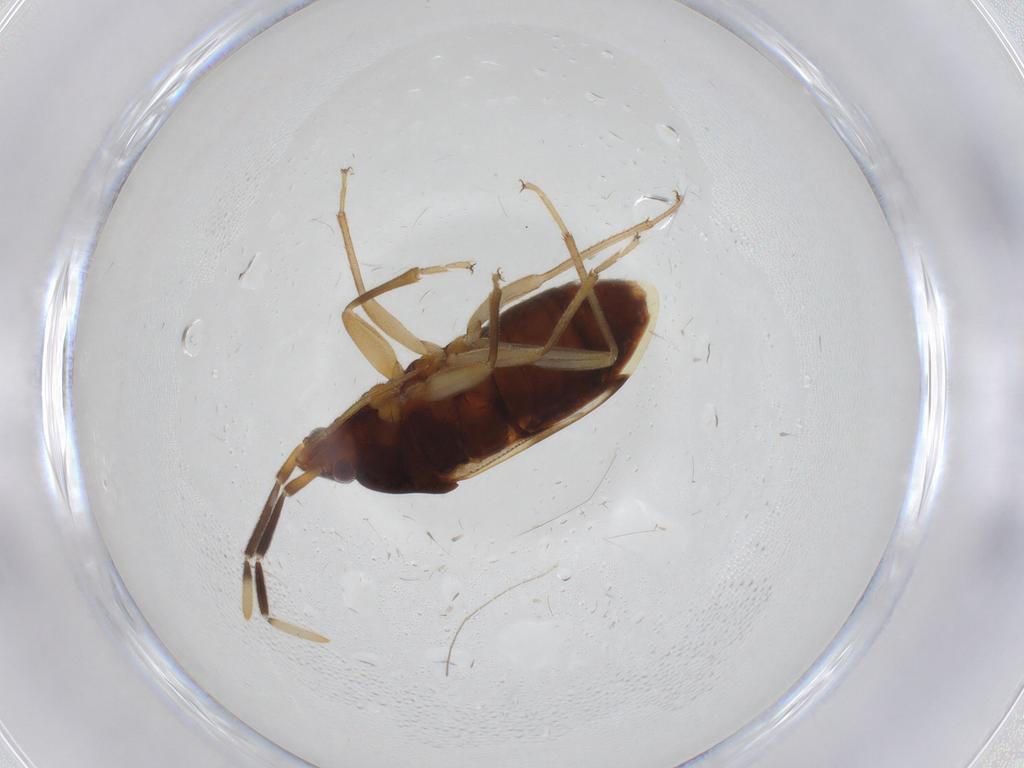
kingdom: Animalia
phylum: Arthropoda
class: Insecta
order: Hemiptera
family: Rhyparochromidae
